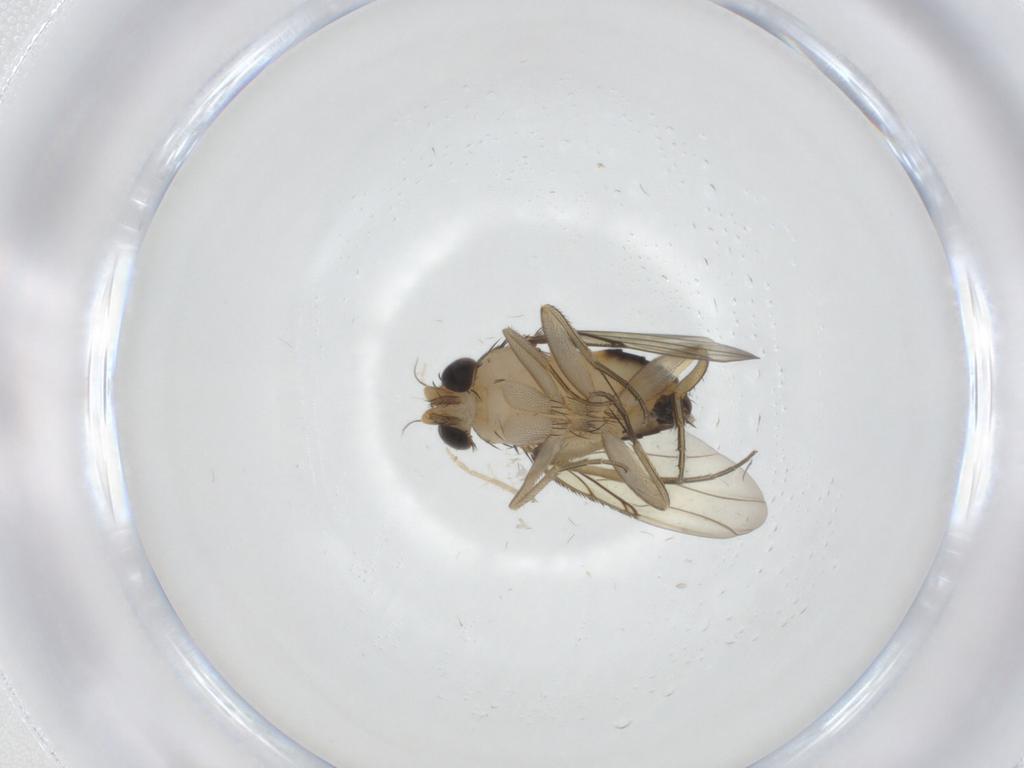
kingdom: Animalia
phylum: Arthropoda
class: Insecta
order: Diptera
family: Phoridae
